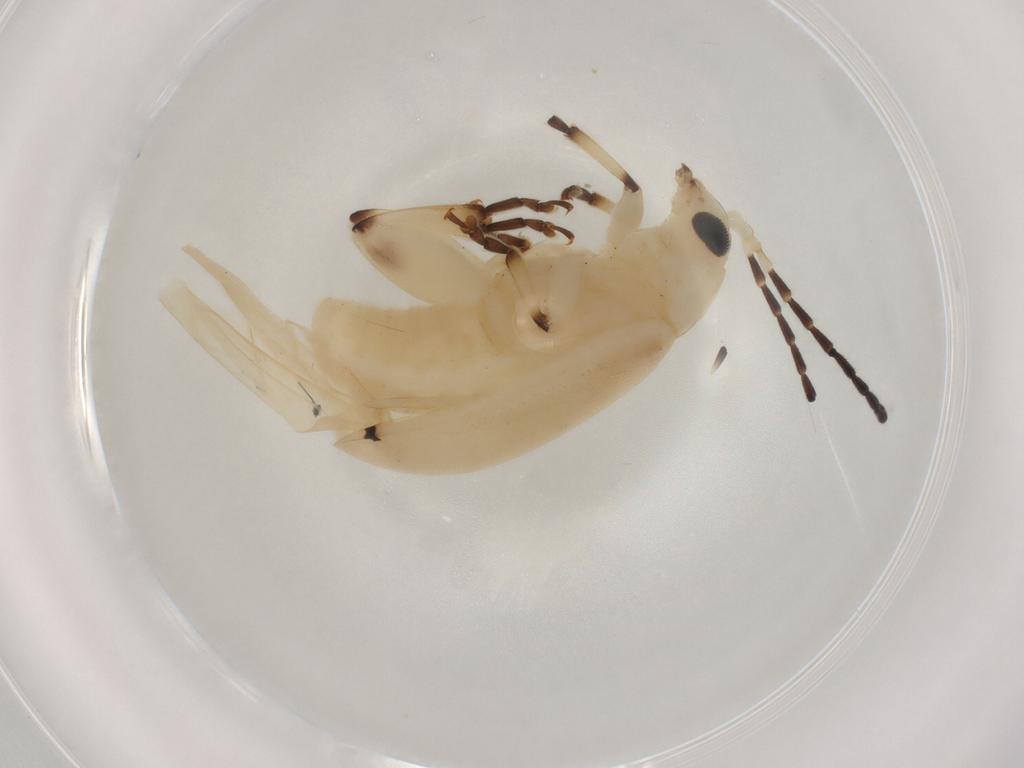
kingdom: Animalia
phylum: Arthropoda
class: Insecta
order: Coleoptera
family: Chrysomelidae
